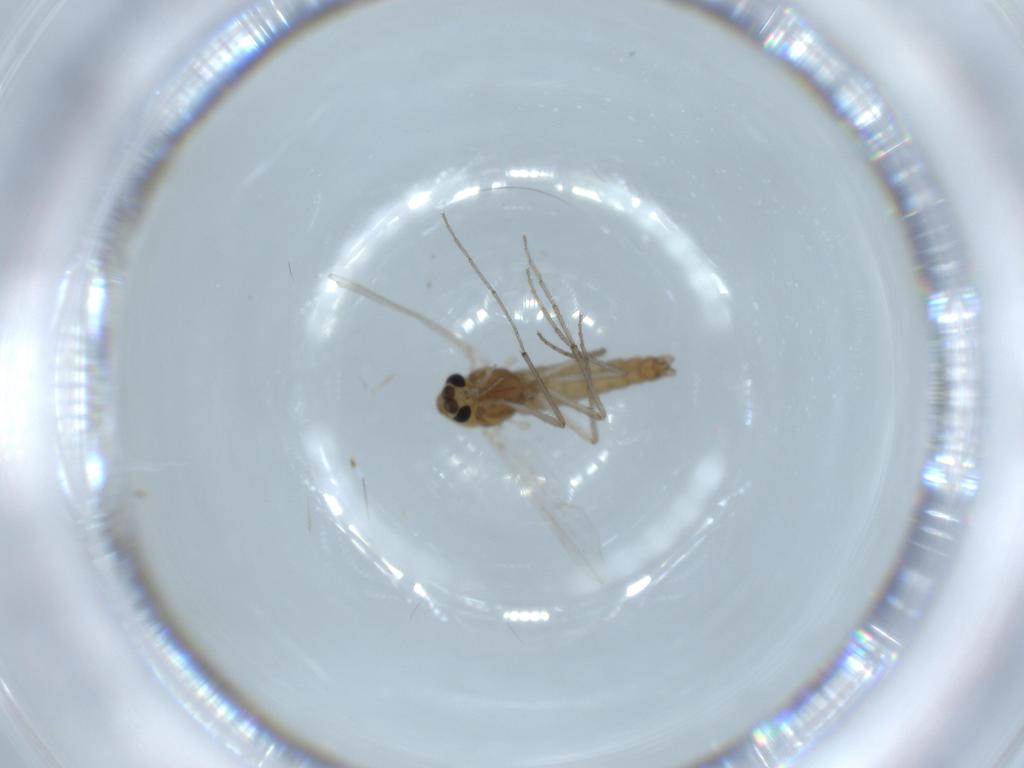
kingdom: Animalia
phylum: Arthropoda
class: Insecta
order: Diptera
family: Chironomidae
